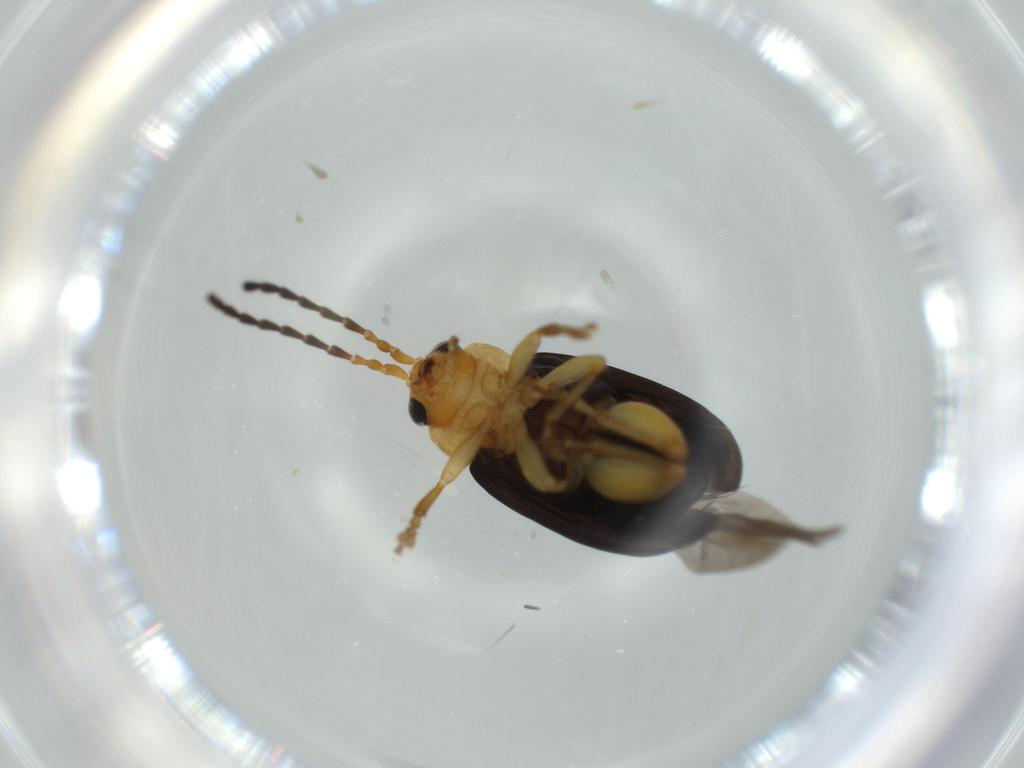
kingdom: Animalia
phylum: Arthropoda
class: Insecta
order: Coleoptera
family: Chrysomelidae
